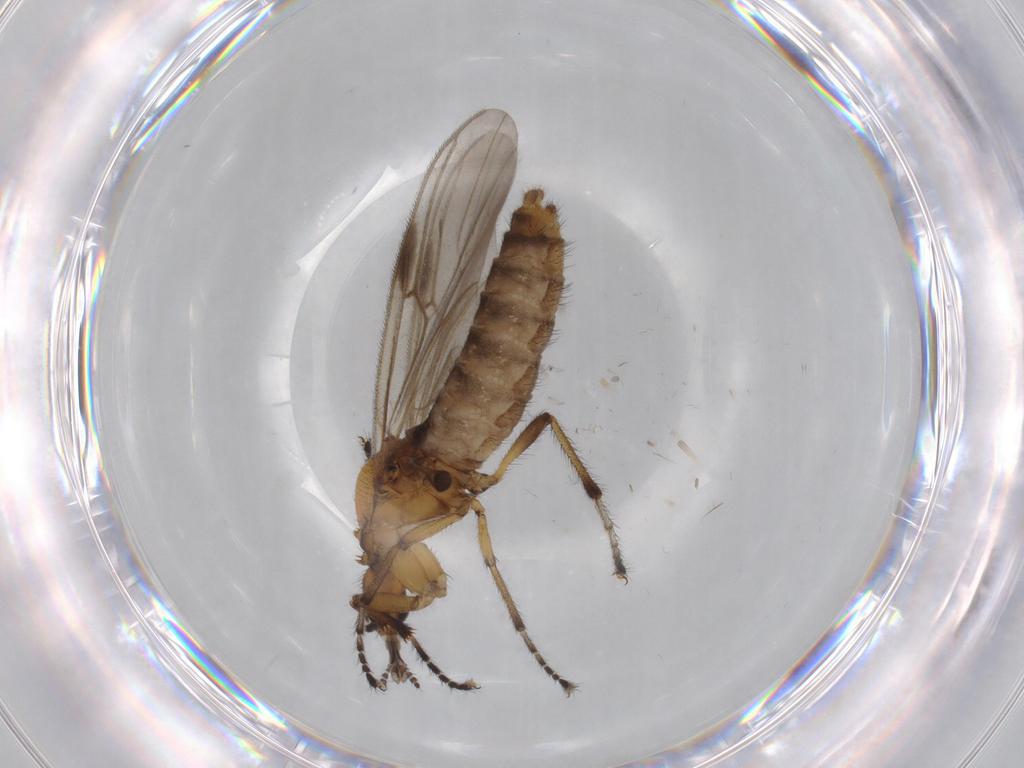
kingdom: Animalia
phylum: Arthropoda
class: Insecta
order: Diptera
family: Bibionidae
